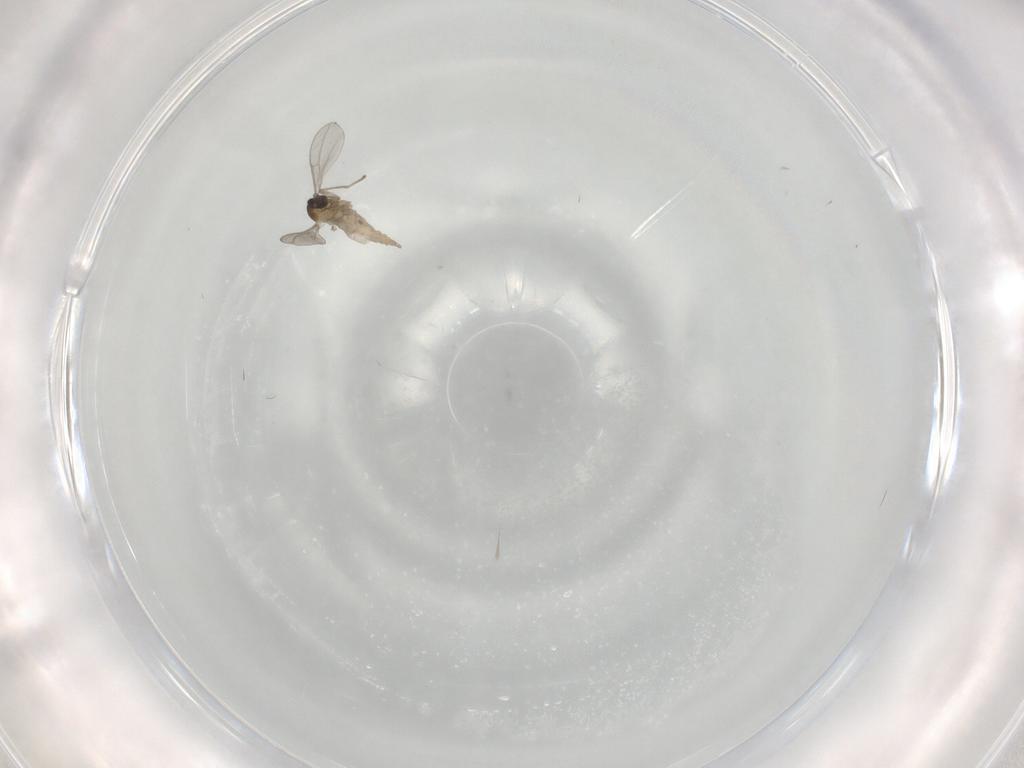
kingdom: Animalia
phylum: Arthropoda
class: Insecta
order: Diptera
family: Cecidomyiidae
